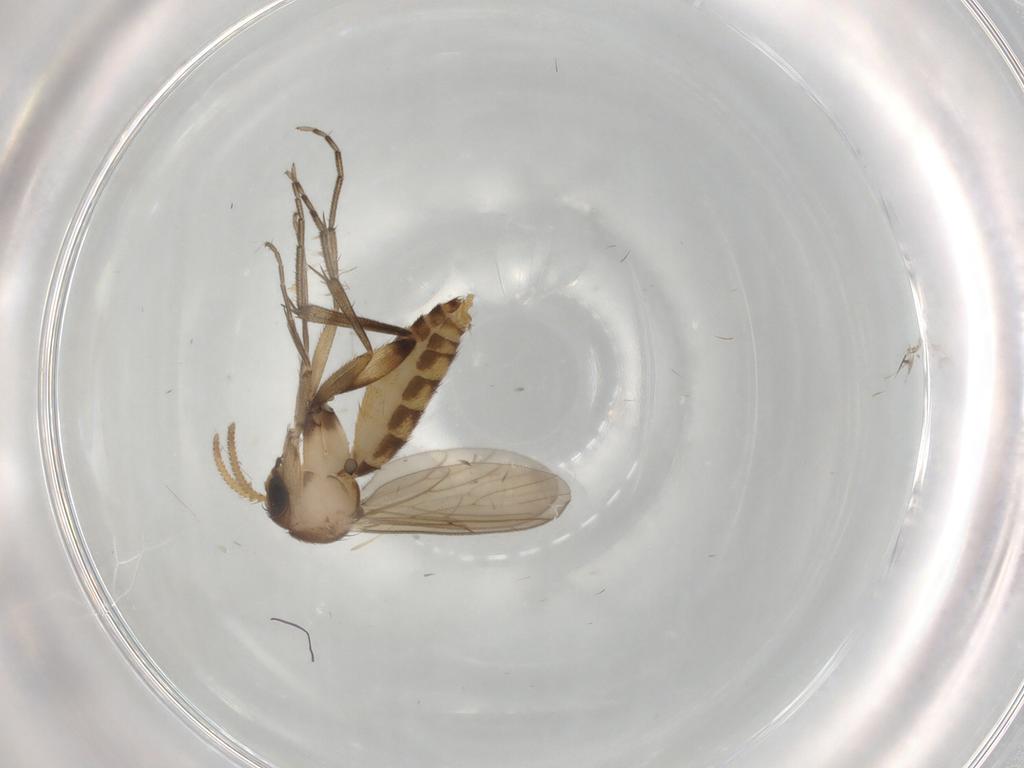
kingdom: Animalia
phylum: Arthropoda
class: Insecta
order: Diptera
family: Mycetophilidae
